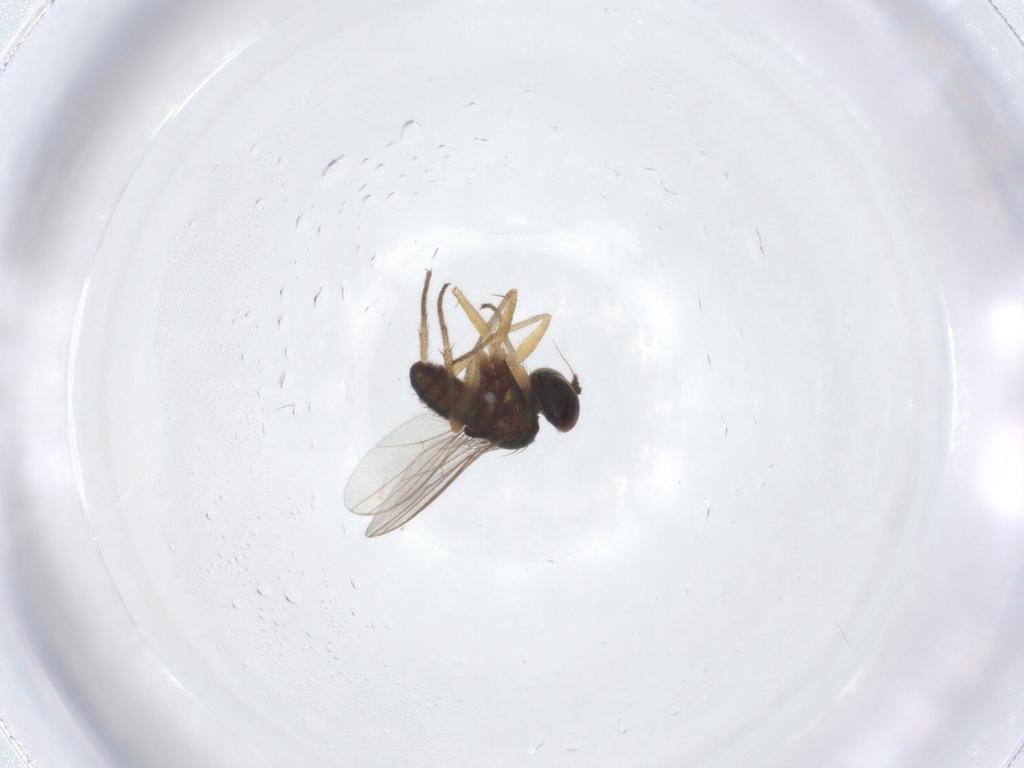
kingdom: Animalia
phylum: Arthropoda
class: Insecta
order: Diptera
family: Dolichopodidae
